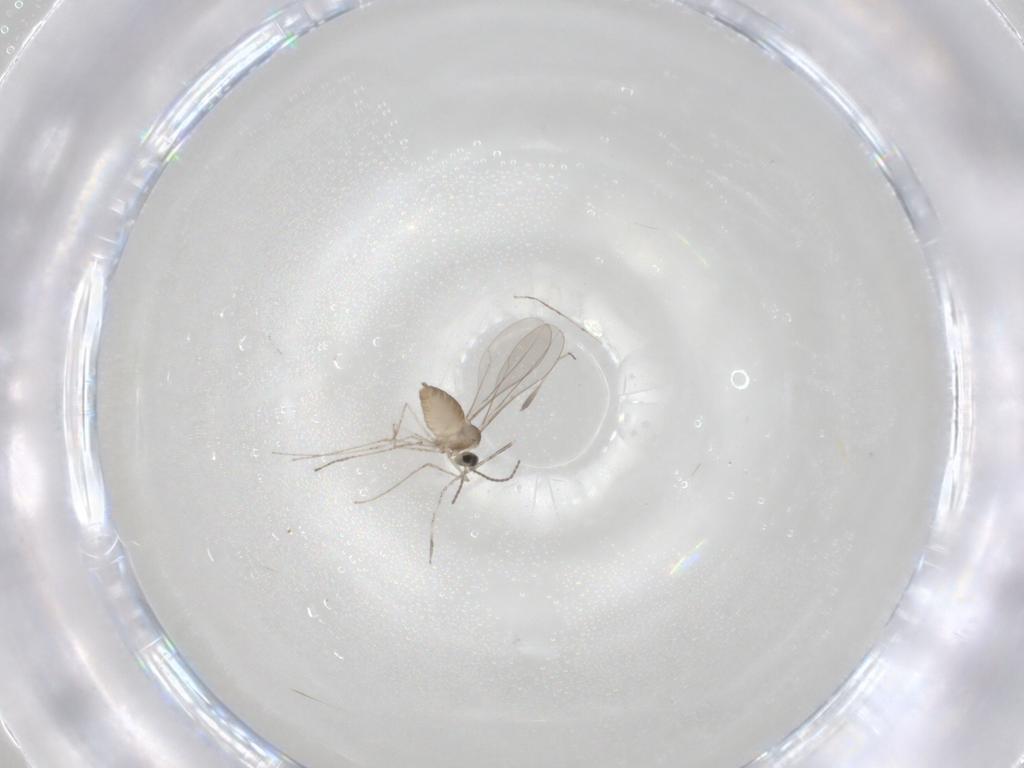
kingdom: Animalia
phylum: Arthropoda
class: Insecta
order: Diptera
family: Cecidomyiidae
